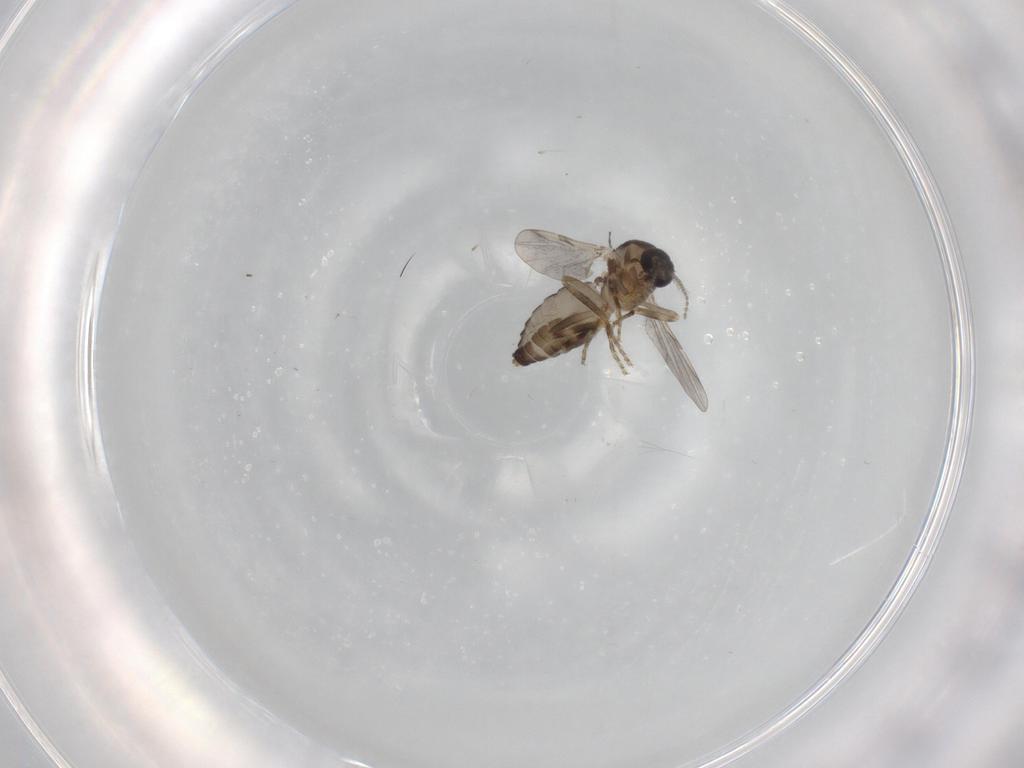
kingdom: Animalia
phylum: Arthropoda
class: Insecta
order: Diptera
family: Ceratopogonidae
